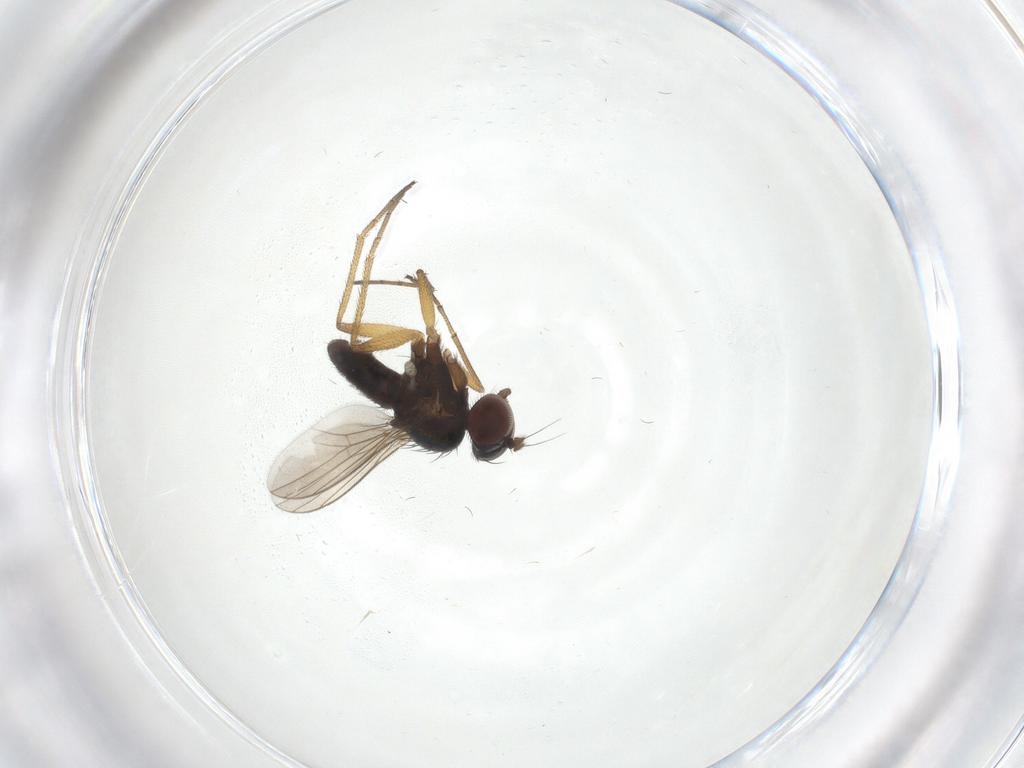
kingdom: Animalia
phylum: Arthropoda
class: Insecta
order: Diptera
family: Dolichopodidae
